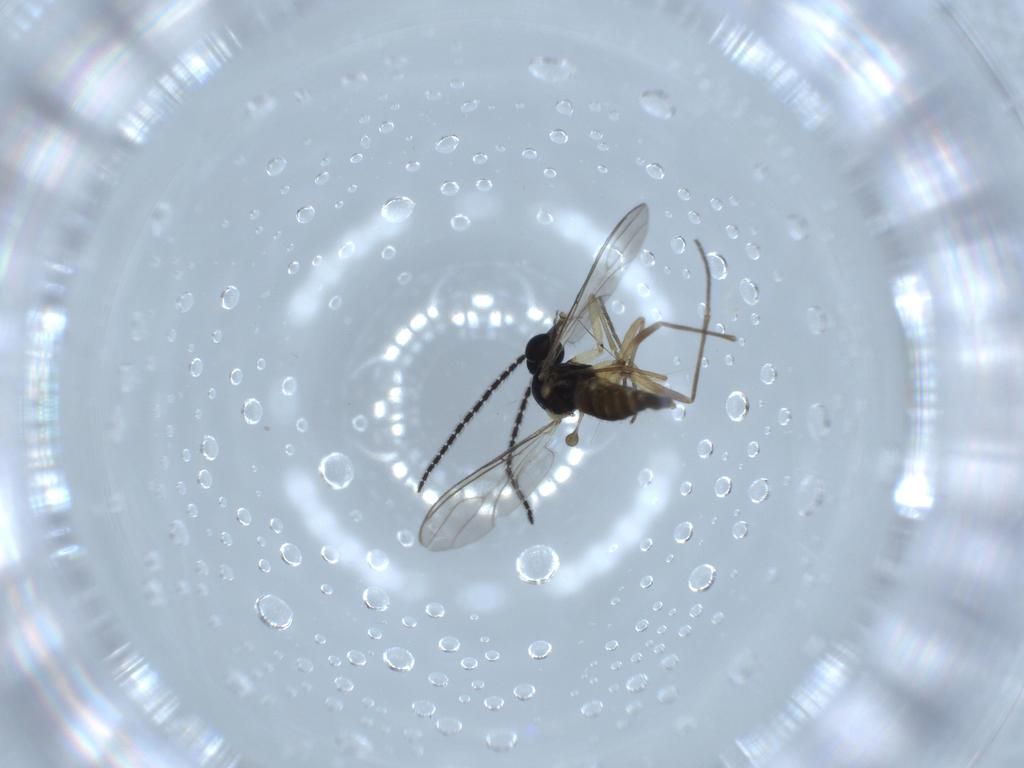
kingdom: Animalia
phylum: Arthropoda
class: Insecta
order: Diptera
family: Sciaridae
